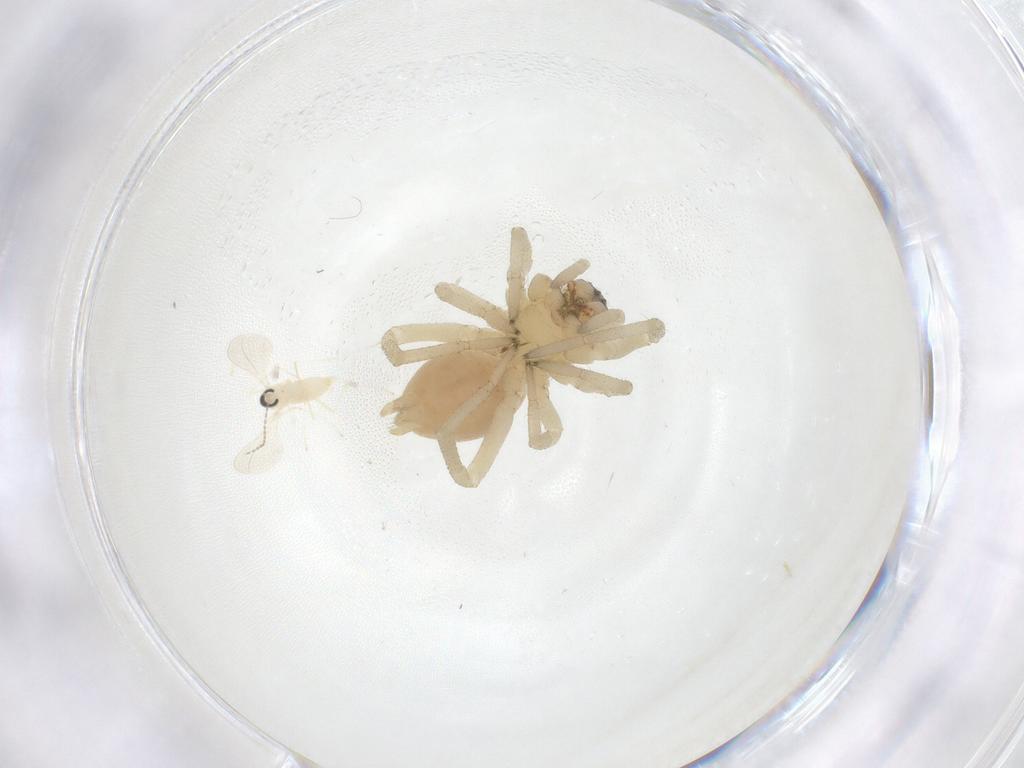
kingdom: Animalia
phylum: Arthropoda
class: Insecta
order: Diptera
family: Cecidomyiidae
